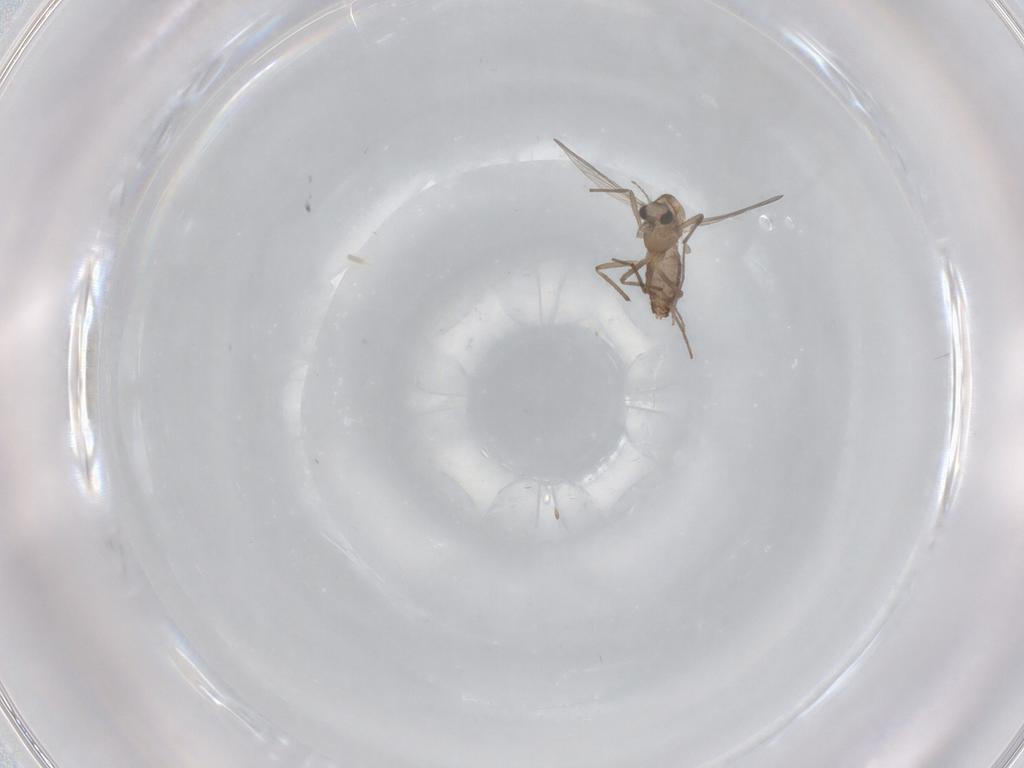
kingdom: Animalia
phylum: Arthropoda
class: Insecta
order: Diptera
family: Chironomidae
